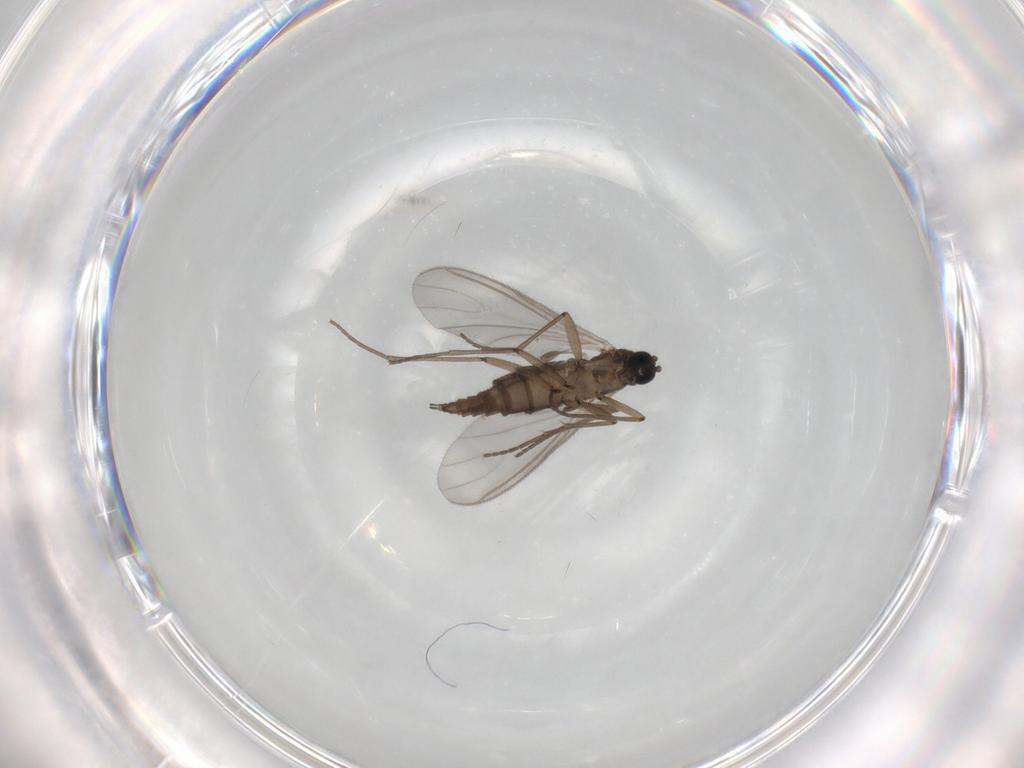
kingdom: Animalia
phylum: Arthropoda
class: Insecta
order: Diptera
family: Sciaridae
